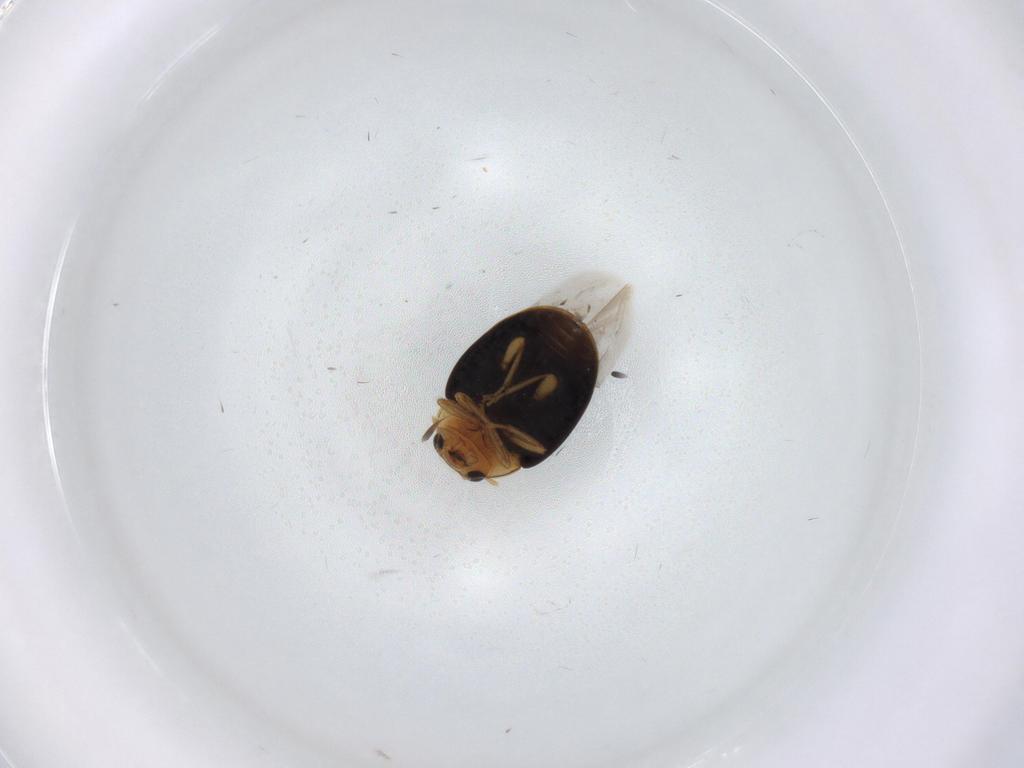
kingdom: Animalia
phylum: Arthropoda
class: Insecta
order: Coleoptera
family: Coccinellidae
